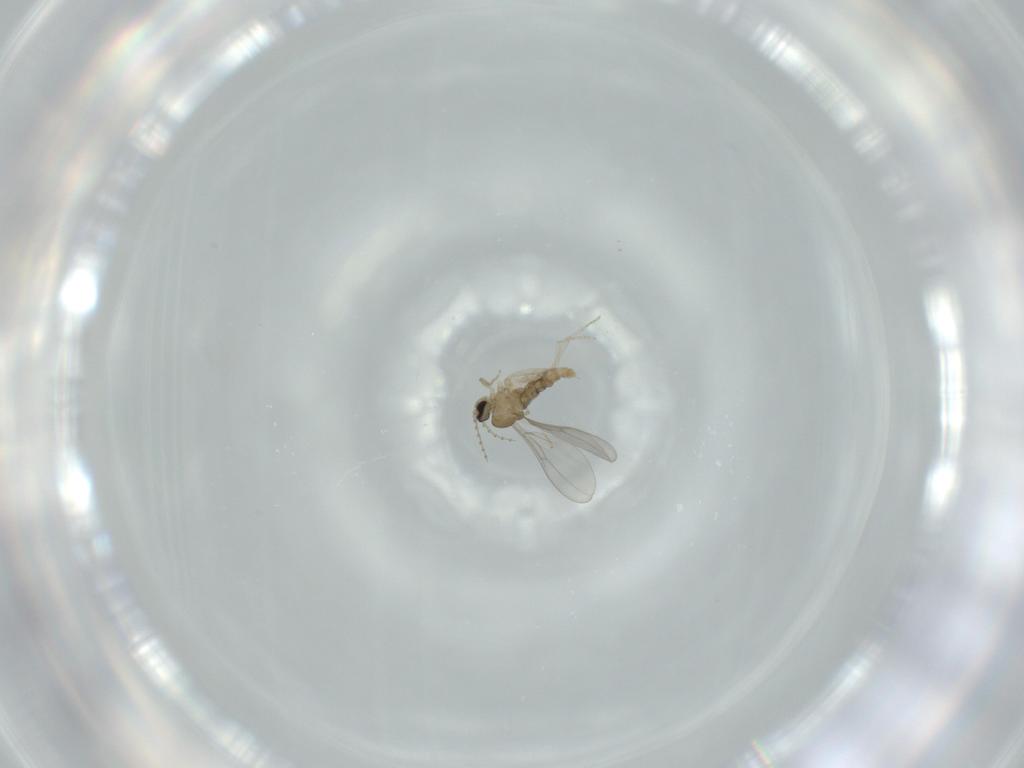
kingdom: Animalia
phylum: Arthropoda
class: Insecta
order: Diptera
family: Cecidomyiidae
